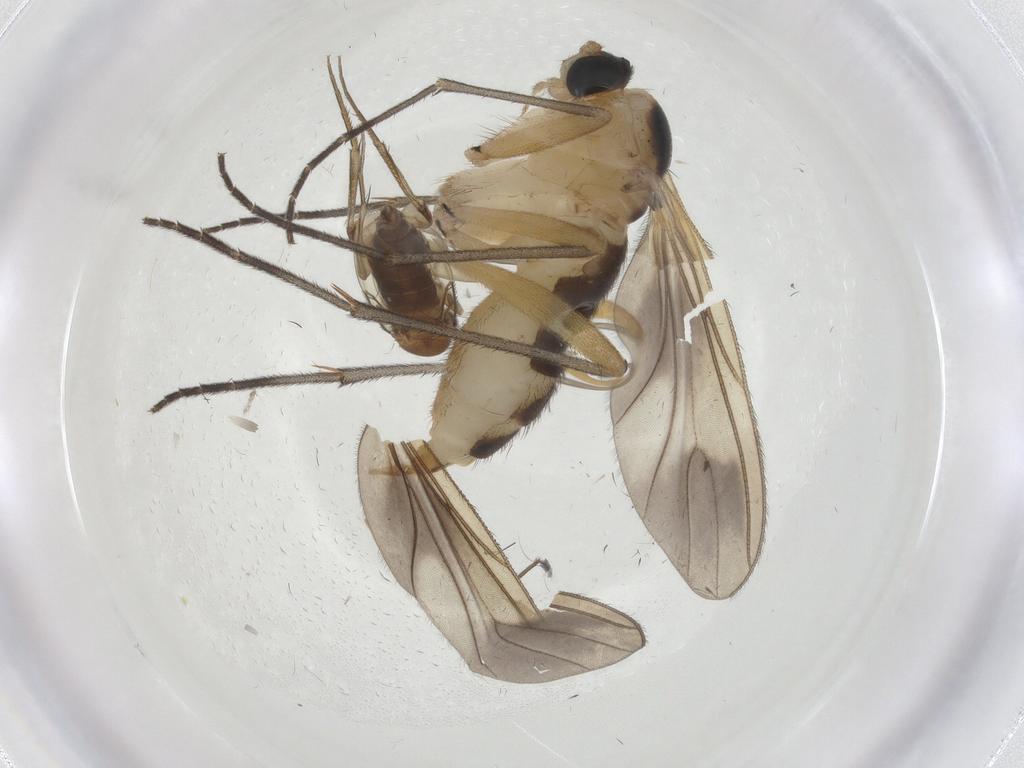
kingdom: Animalia
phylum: Arthropoda
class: Insecta
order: Diptera
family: Sciaridae
